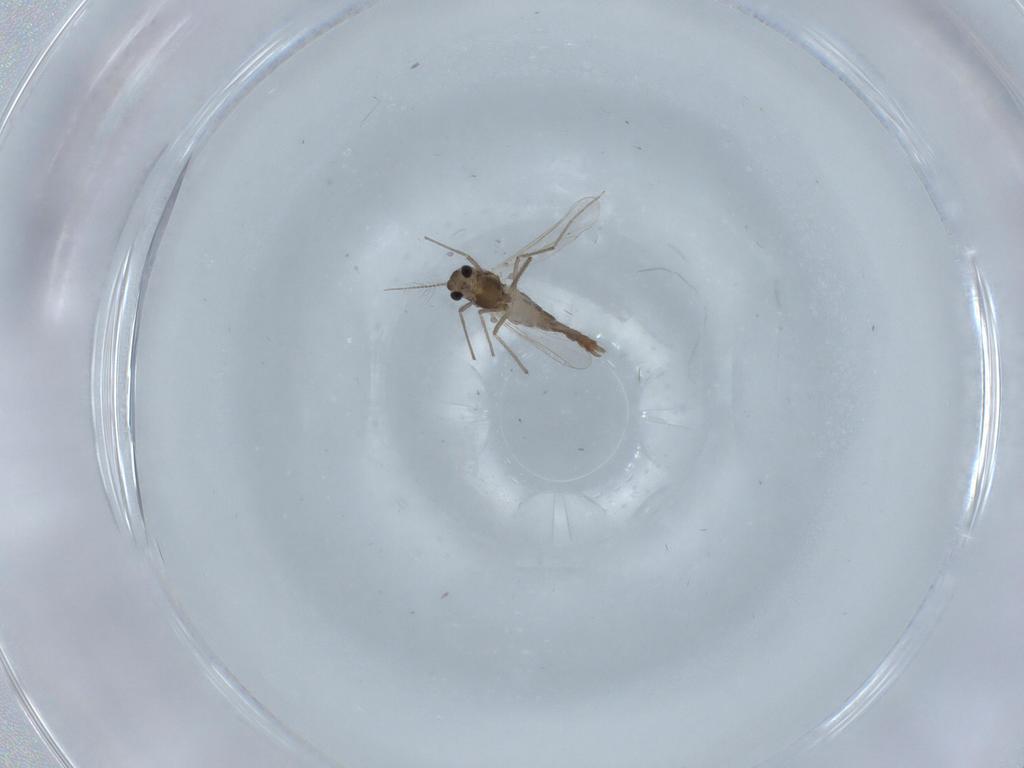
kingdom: Animalia
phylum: Arthropoda
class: Insecta
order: Diptera
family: Chironomidae
